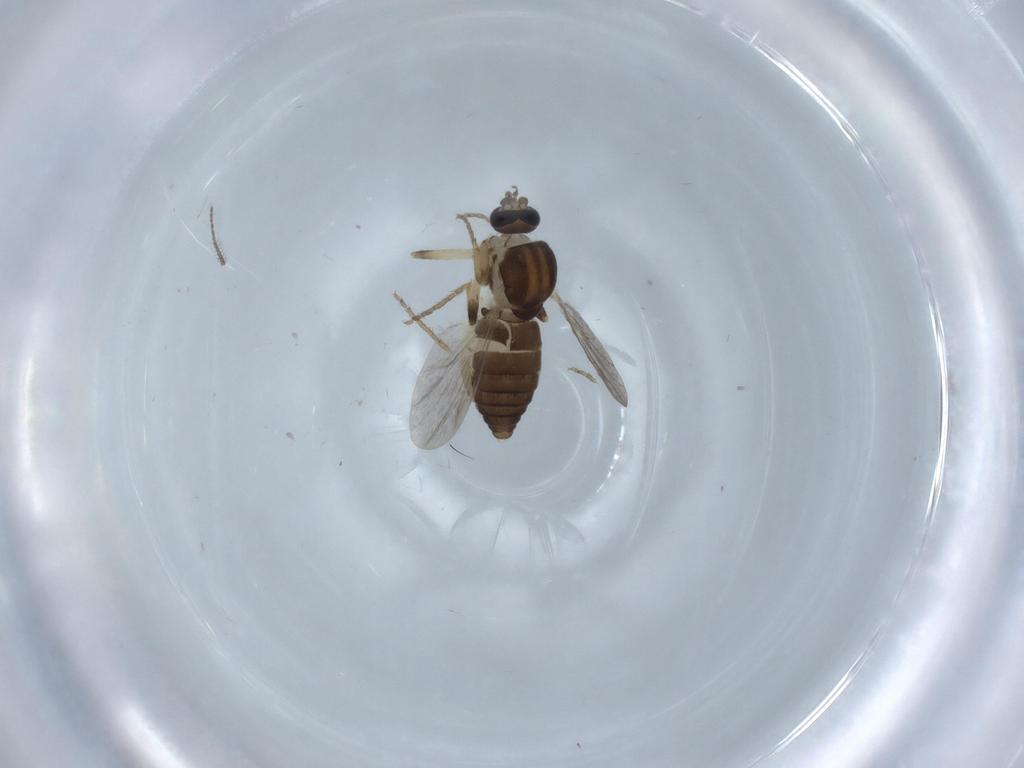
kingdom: Animalia
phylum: Arthropoda
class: Insecta
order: Diptera
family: Ceratopogonidae
